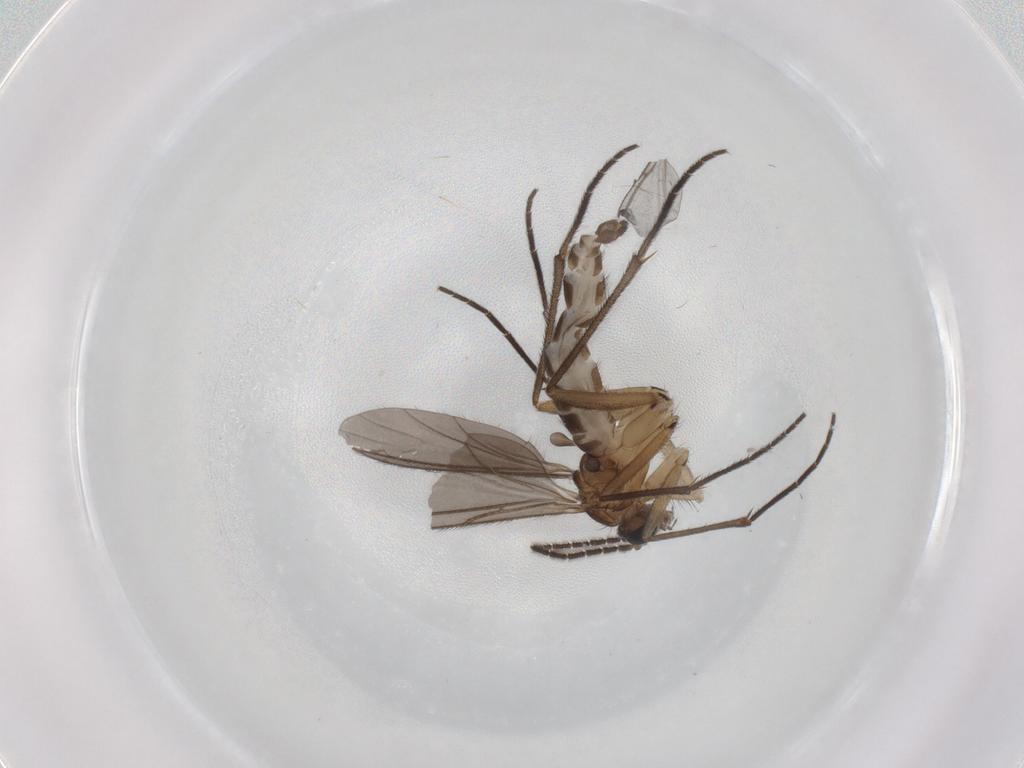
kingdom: Animalia
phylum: Arthropoda
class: Insecta
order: Diptera
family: Sciaridae
